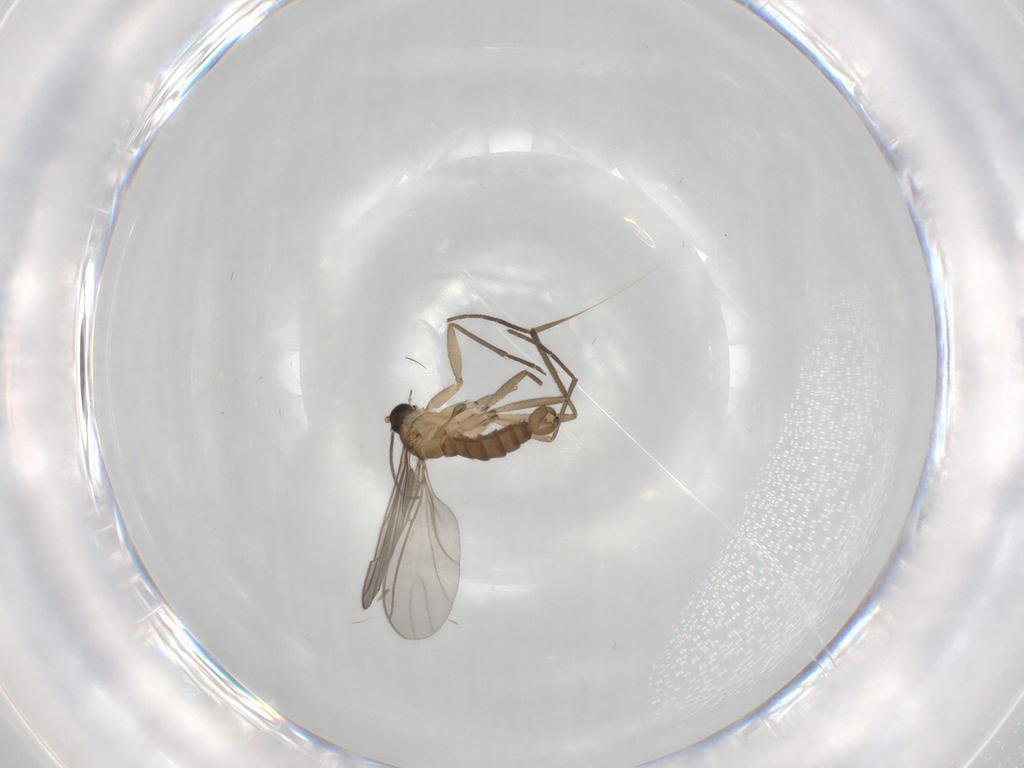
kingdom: Animalia
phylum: Arthropoda
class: Insecta
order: Diptera
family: Sciaridae
